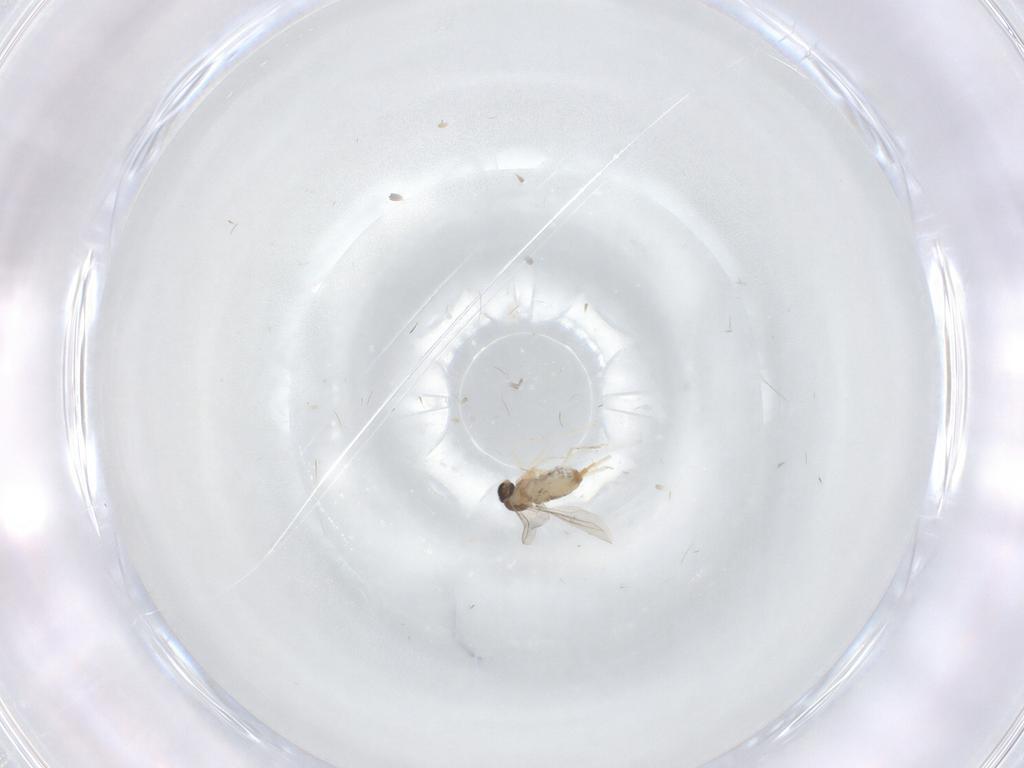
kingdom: Animalia
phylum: Arthropoda
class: Insecta
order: Diptera
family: Cecidomyiidae
